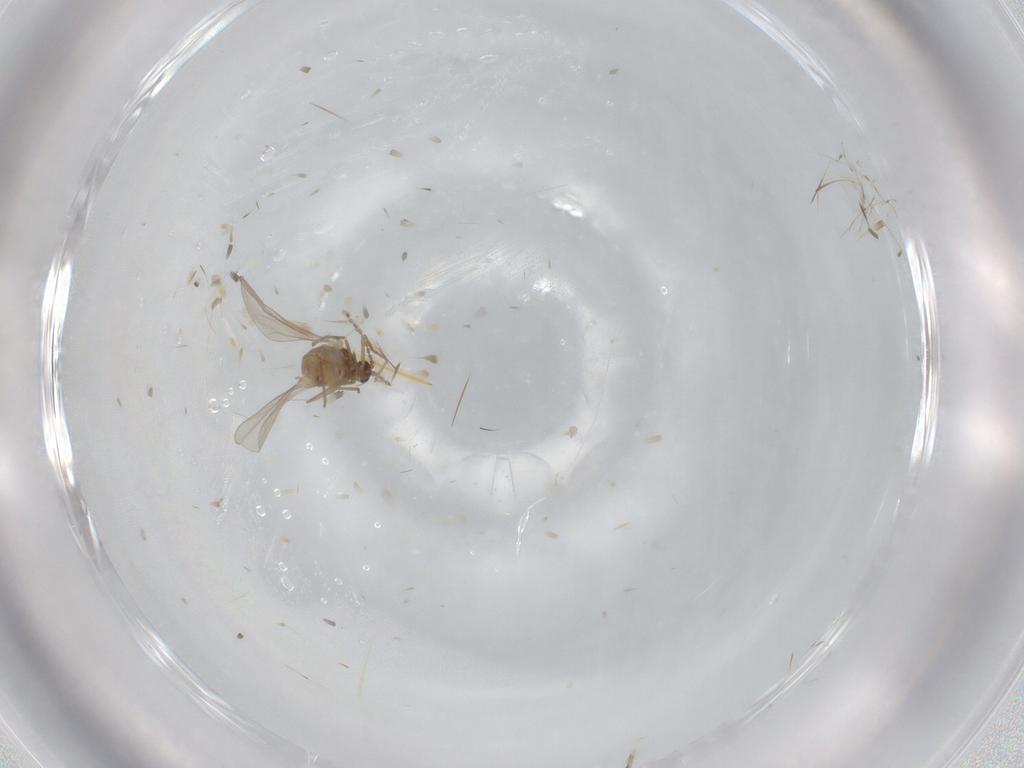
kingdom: Animalia
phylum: Arthropoda
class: Insecta
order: Diptera
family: Cecidomyiidae
